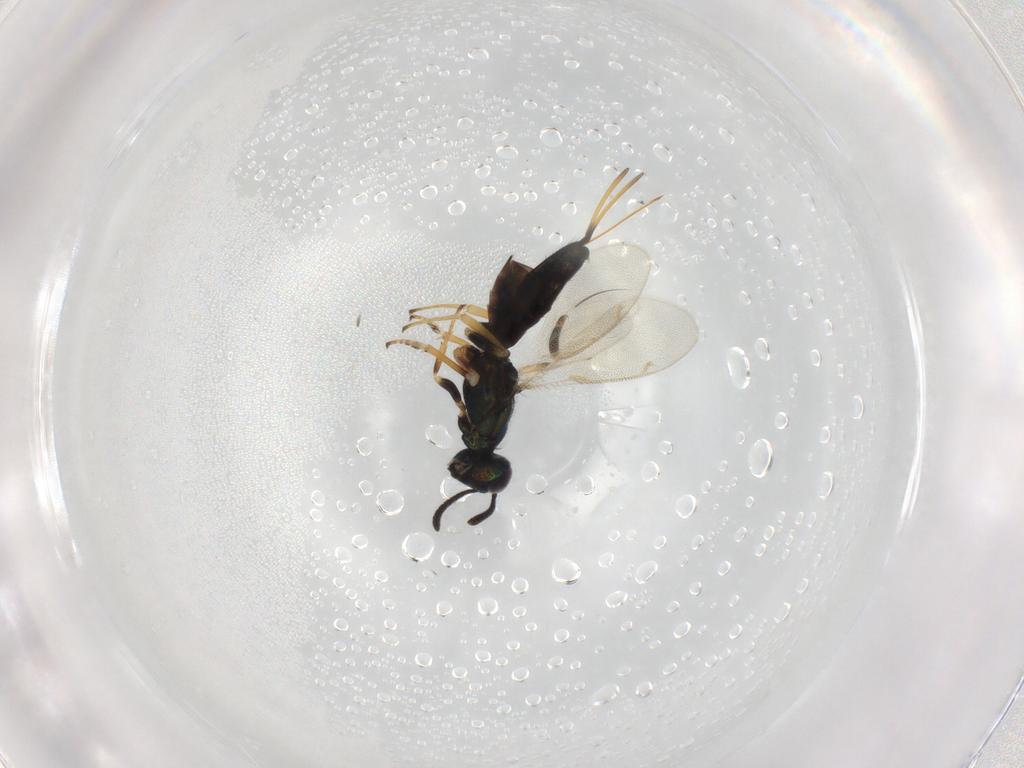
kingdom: Animalia
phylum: Arthropoda
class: Insecta
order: Hymenoptera
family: Eupelmidae
